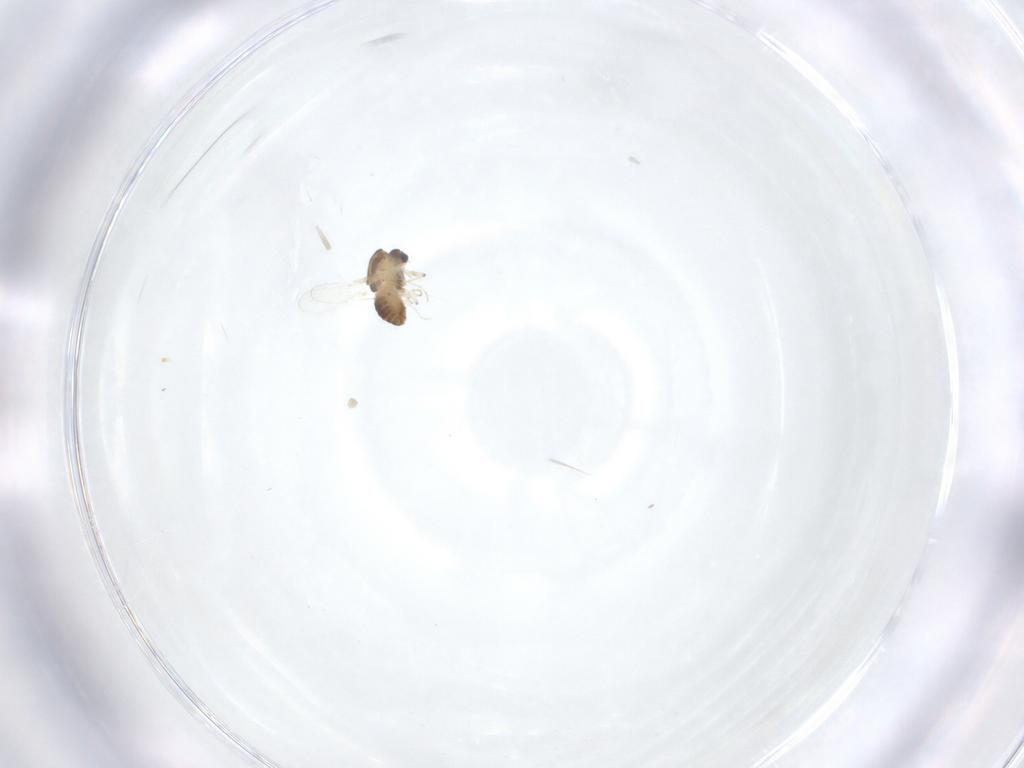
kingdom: Animalia
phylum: Arthropoda
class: Insecta
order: Diptera
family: Chironomidae
